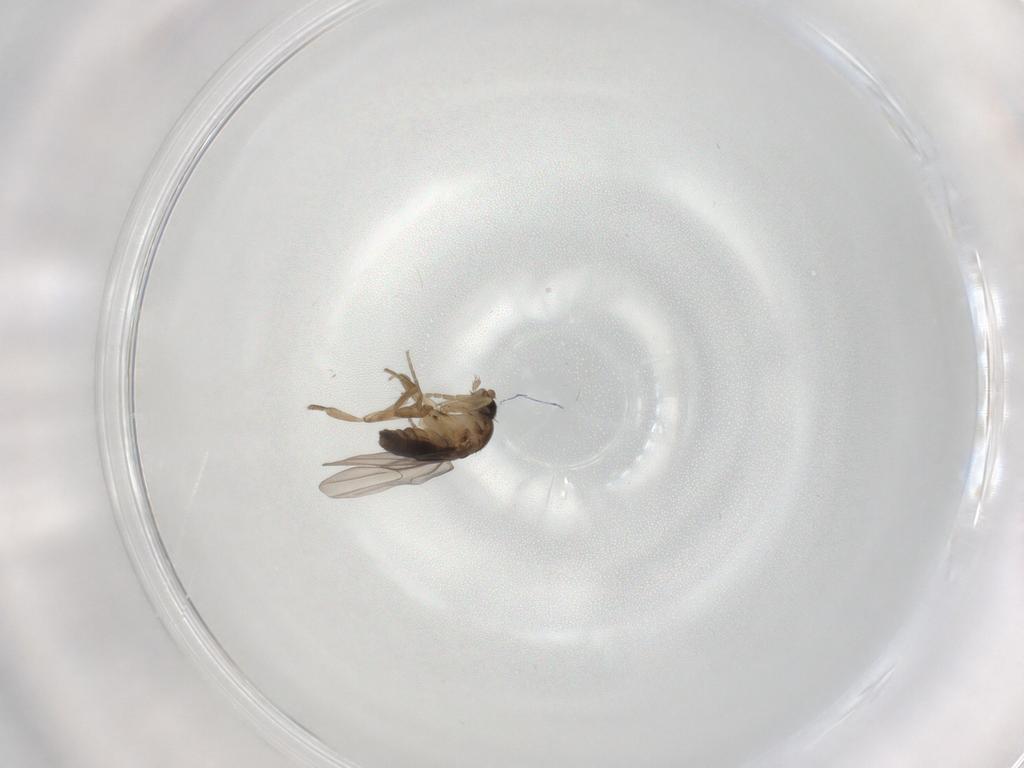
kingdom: Animalia
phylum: Arthropoda
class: Insecta
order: Diptera
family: Phoridae
